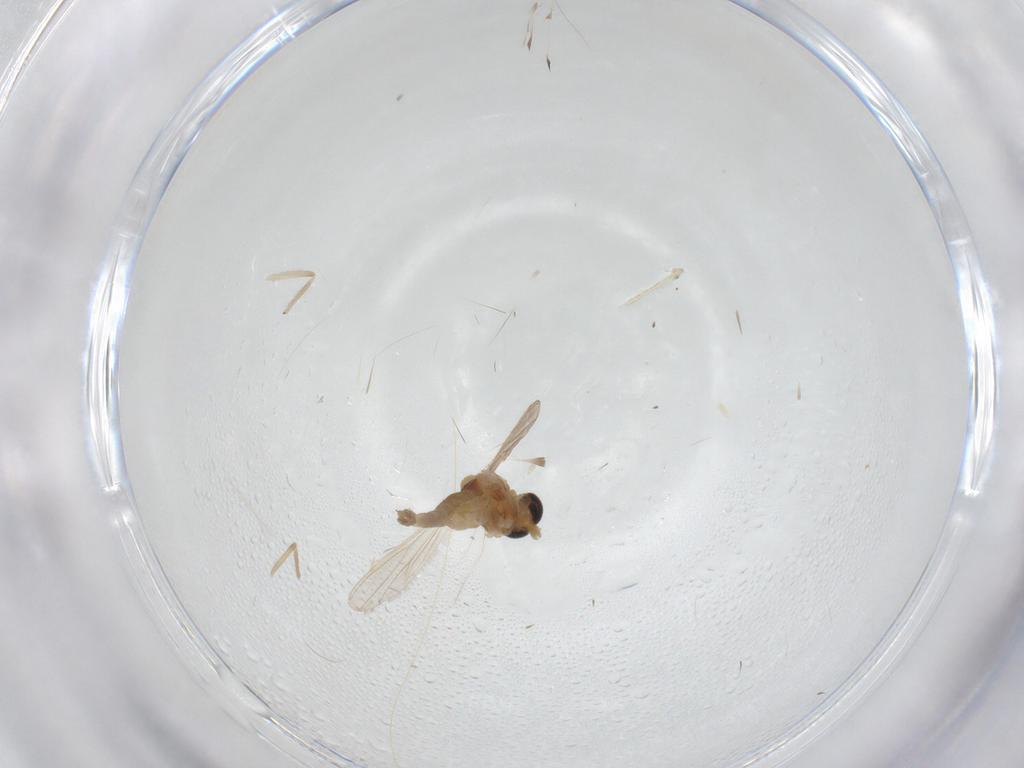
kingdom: Animalia
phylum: Arthropoda
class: Insecta
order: Diptera
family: Chironomidae
